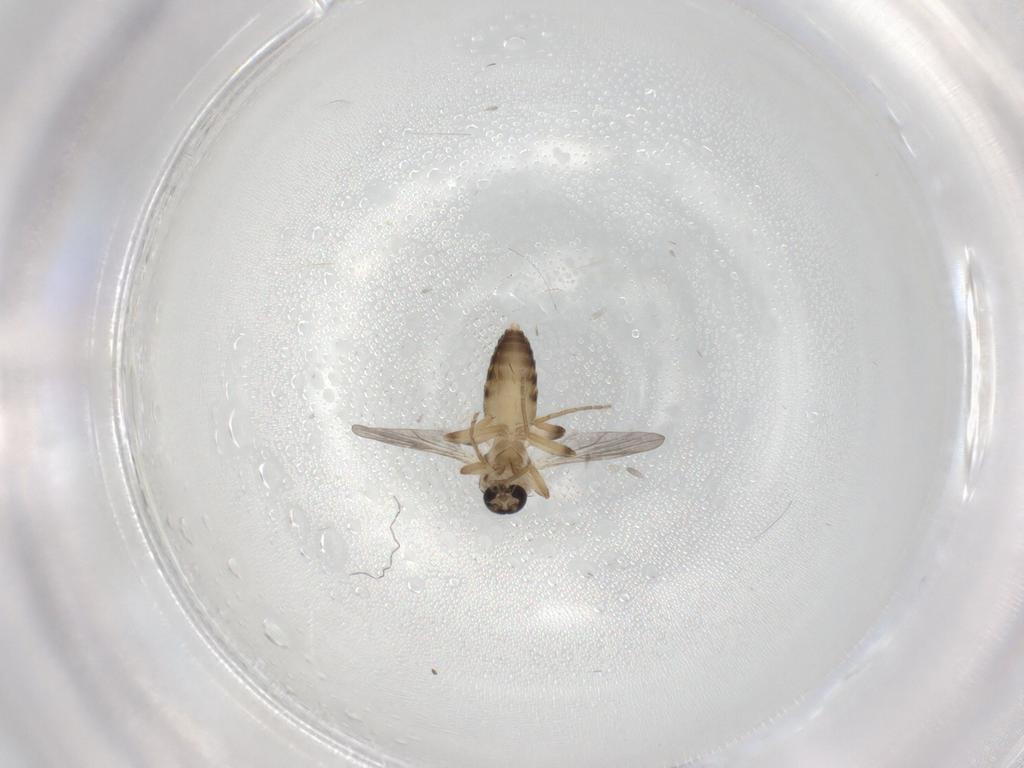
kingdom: Animalia
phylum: Arthropoda
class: Insecta
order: Diptera
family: Ceratopogonidae
